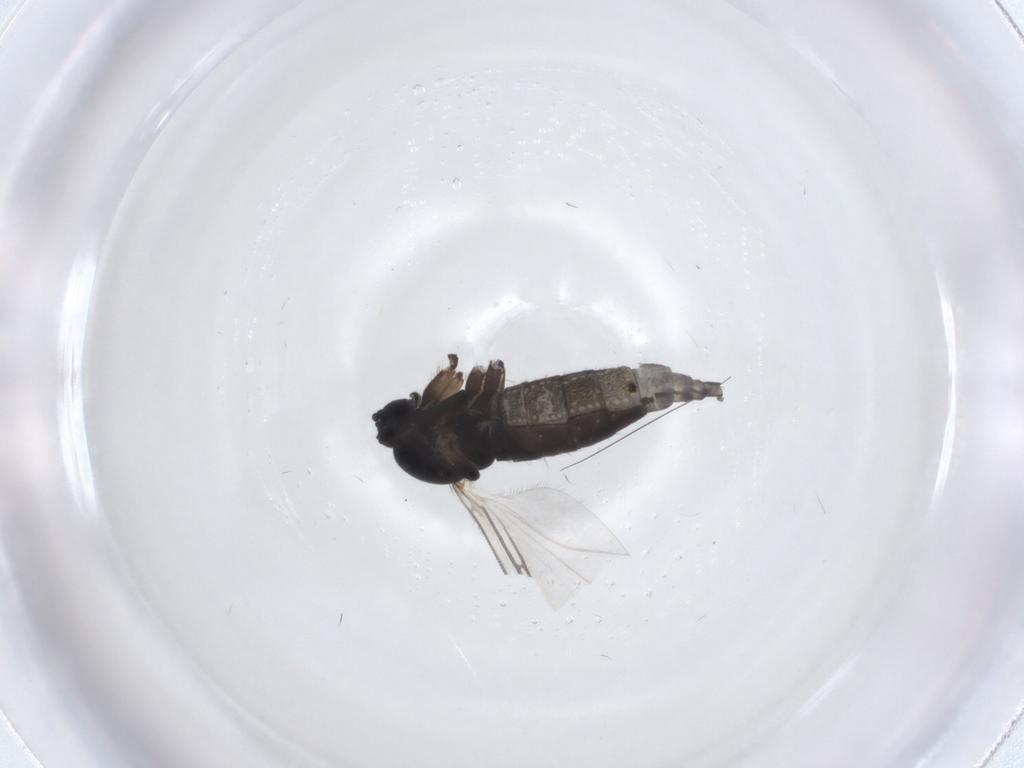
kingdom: Animalia
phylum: Arthropoda
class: Insecta
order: Diptera
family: Sciaridae
